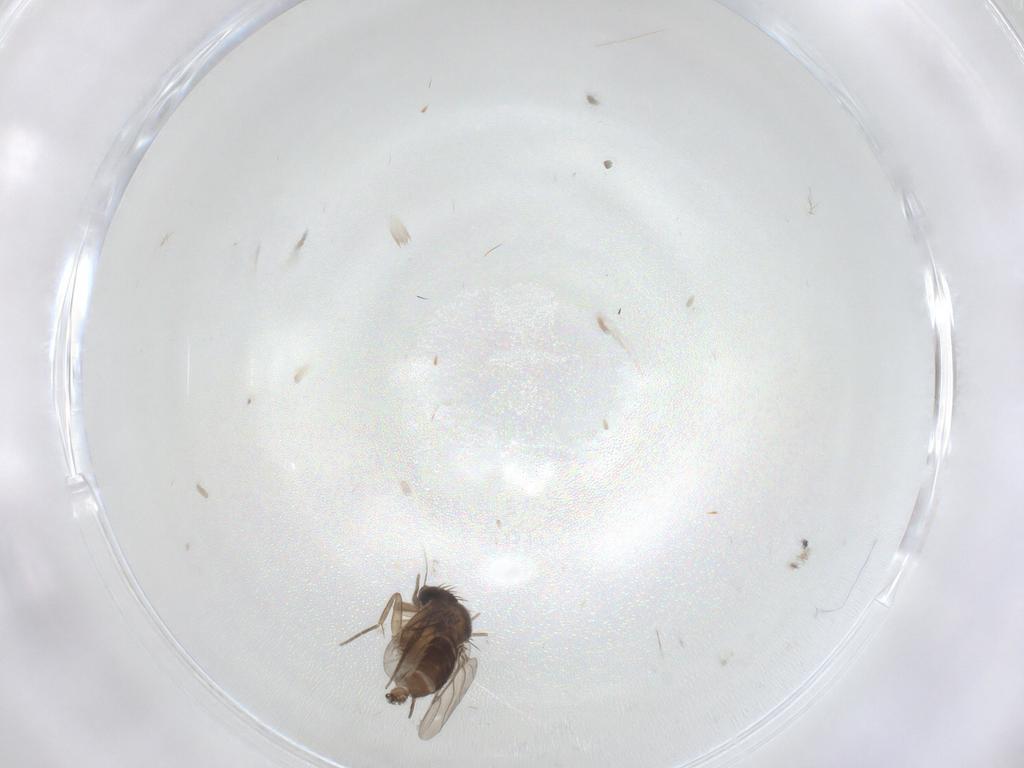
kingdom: Animalia
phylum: Arthropoda
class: Insecta
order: Diptera
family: Phoridae
